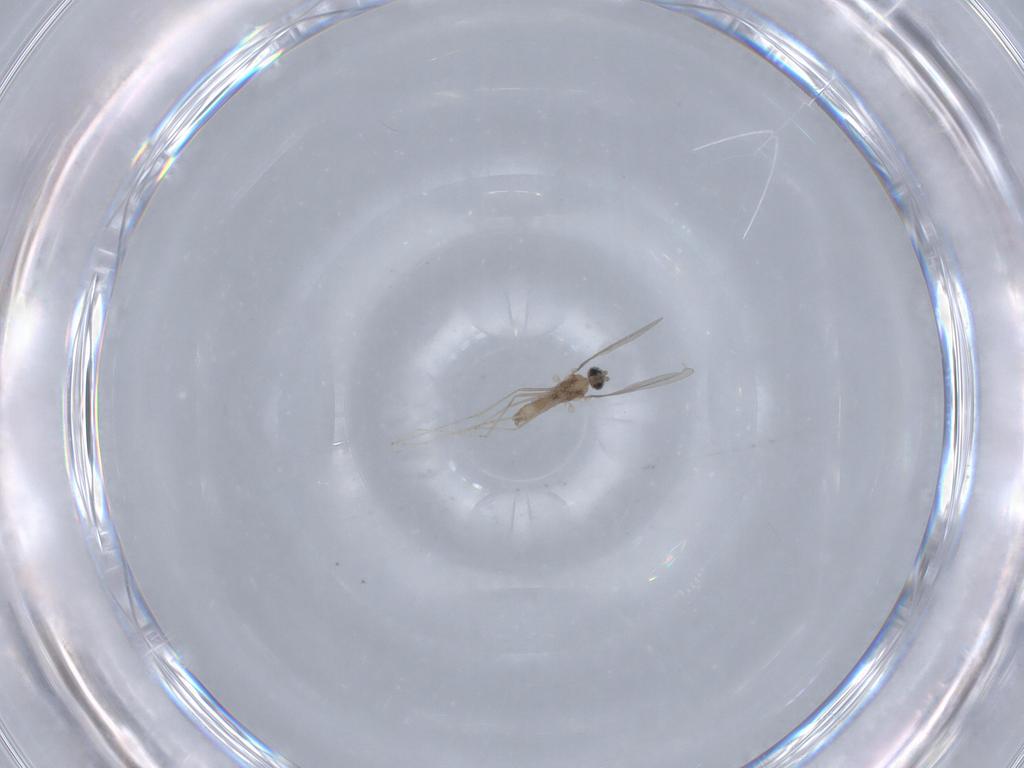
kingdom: Animalia
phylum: Arthropoda
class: Insecta
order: Diptera
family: Cecidomyiidae
